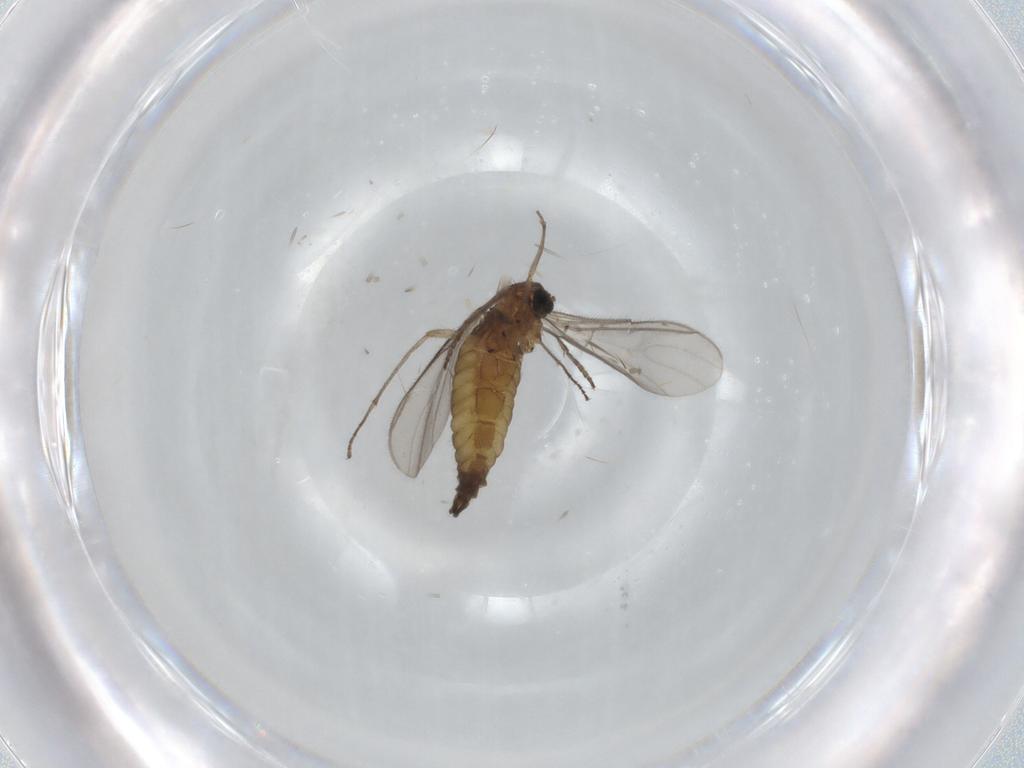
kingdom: Animalia
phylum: Arthropoda
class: Insecta
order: Diptera
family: Sciaridae
